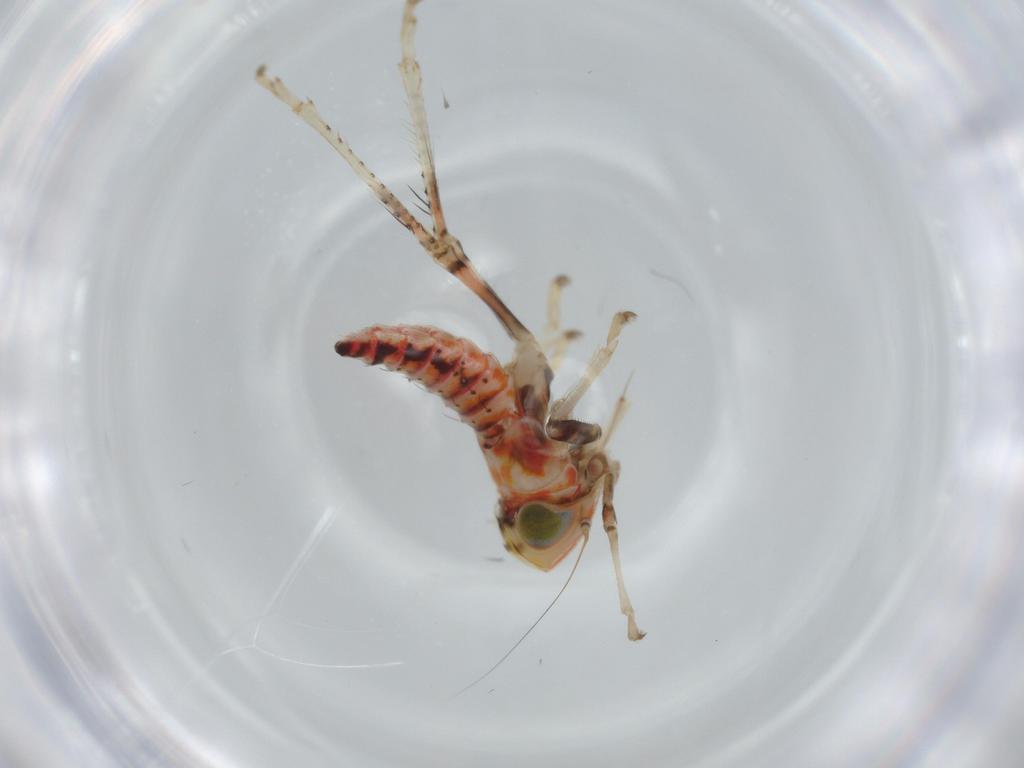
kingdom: Animalia
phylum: Arthropoda
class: Insecta
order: Hemiptera
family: Cicadellidae
